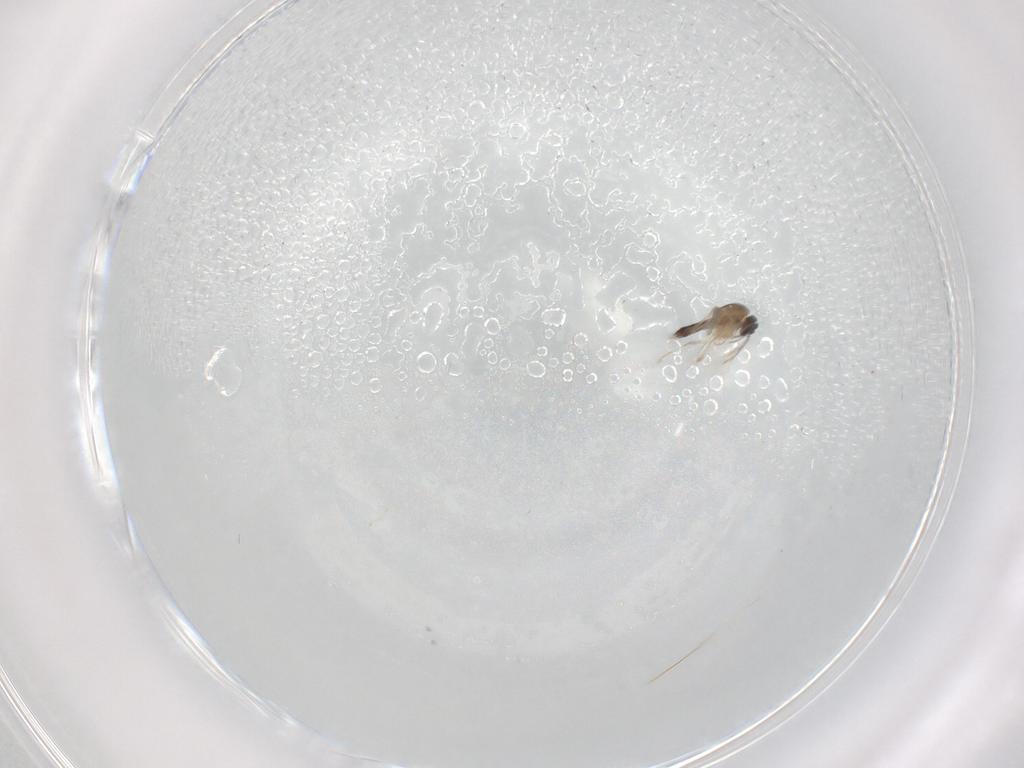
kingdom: Animalia
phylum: Arthropoda
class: Insecta
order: Diptera
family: Ceratopogonidae
